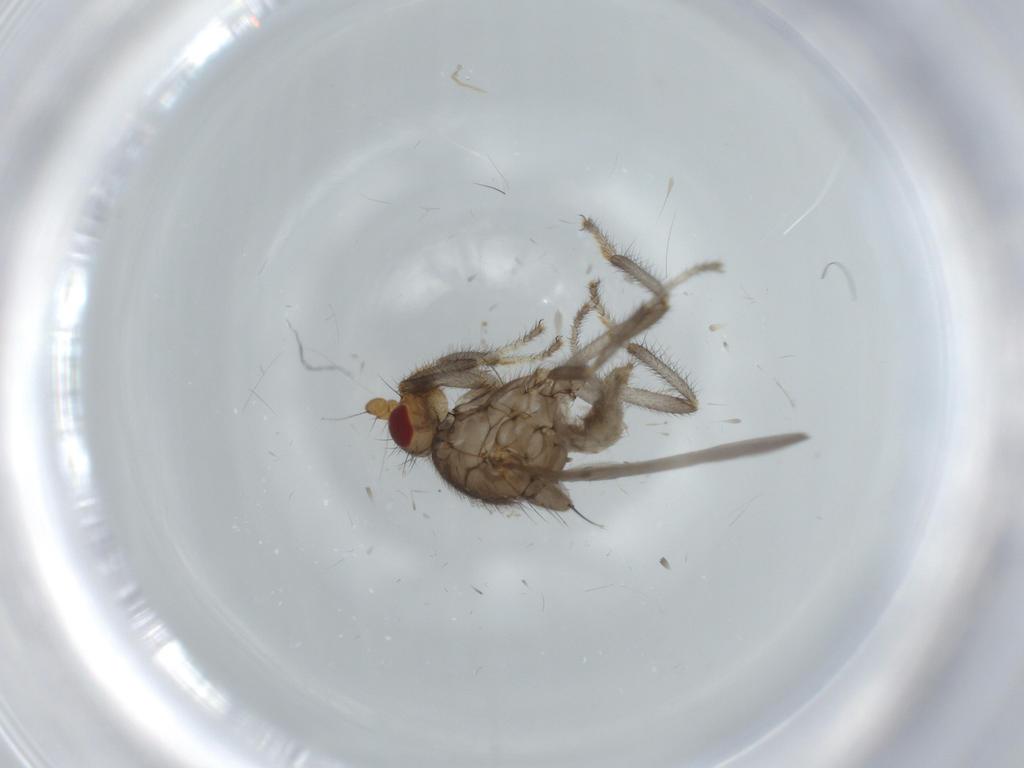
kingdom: Animalia
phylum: Arthropoda
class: Insecta
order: Diptera
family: Sphaeroceridae
